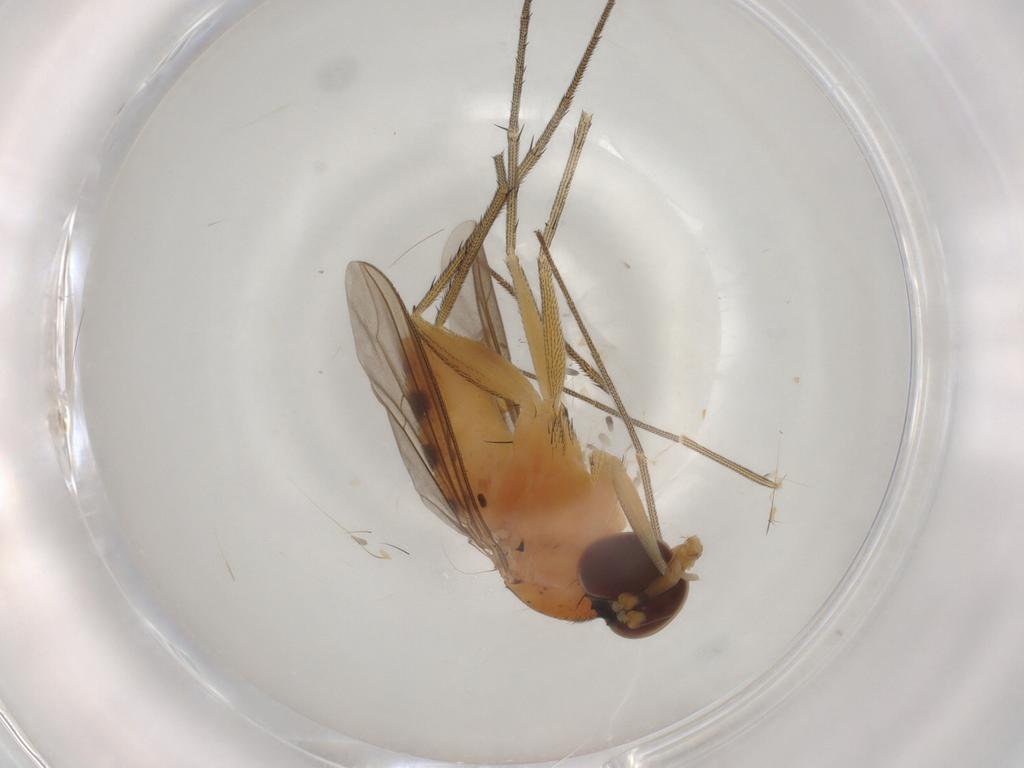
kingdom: Animalia
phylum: Arthropoda
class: Insecta
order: Diptera
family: Dolichopodidae
